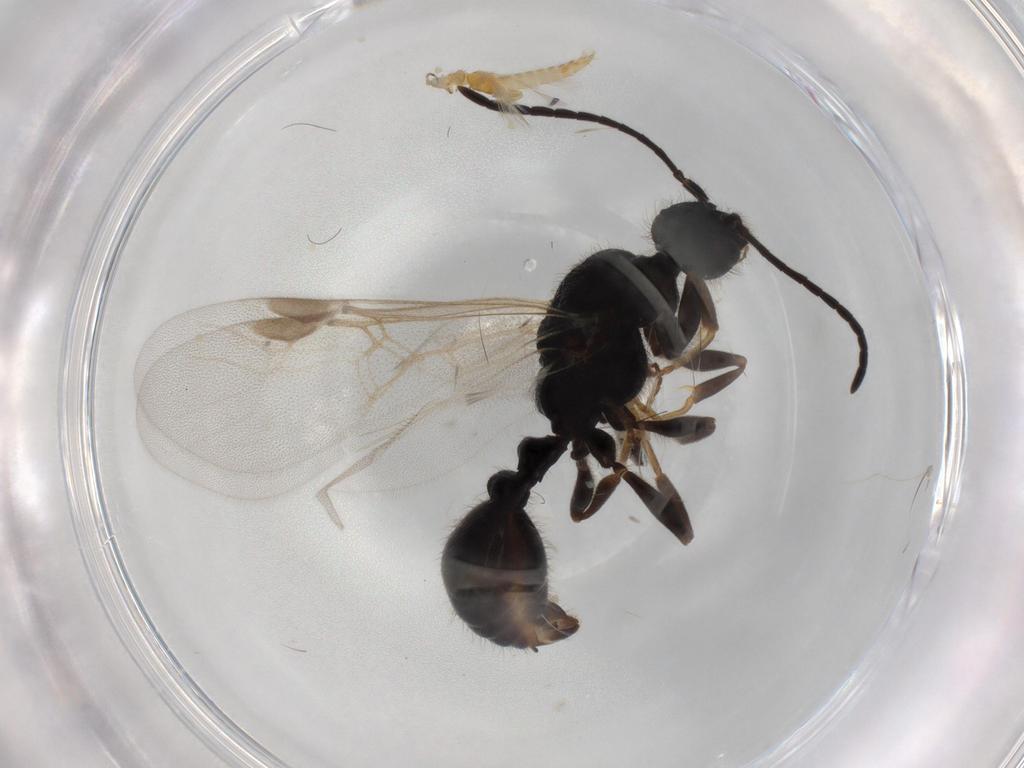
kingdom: Animalia
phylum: Arthropoda
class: Insecta
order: Hymenoptera
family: Formicidae
